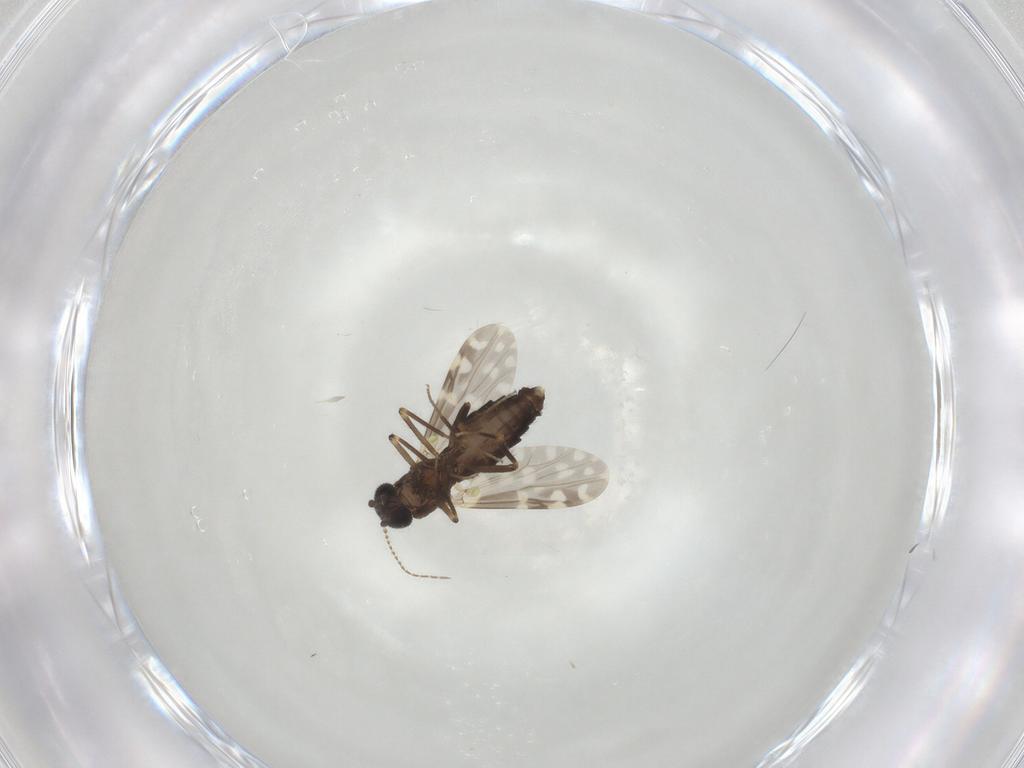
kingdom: Animalia
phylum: Arthropoda
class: Insecta
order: Diptera
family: Ceratopogonidae
